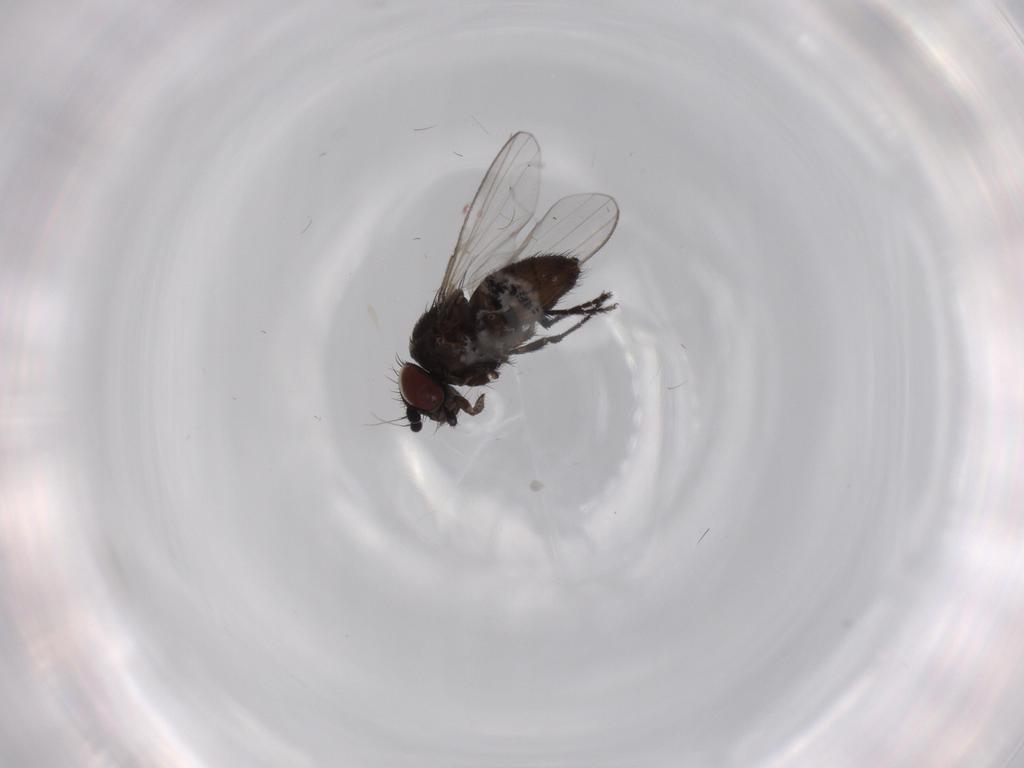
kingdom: Animalia
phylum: Arthropoda
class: Insecta
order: Diptera
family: Milichiidae
